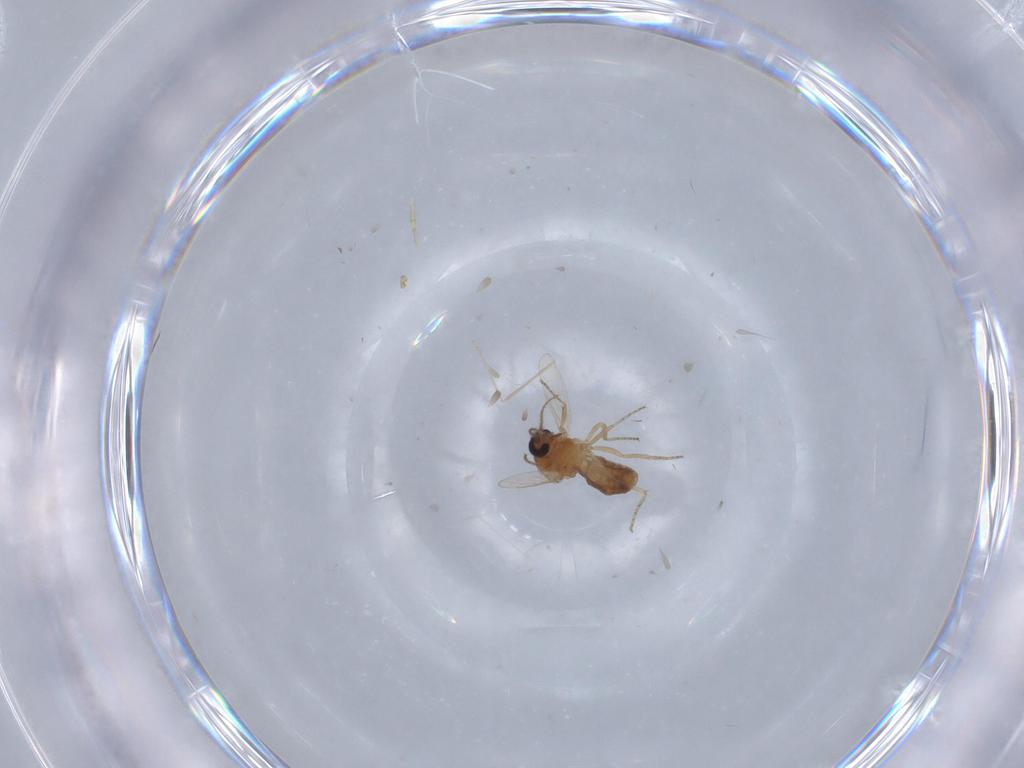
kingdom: Animalia
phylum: Arthropoda
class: Insecta
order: Diptera
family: Ceratopogonidae
